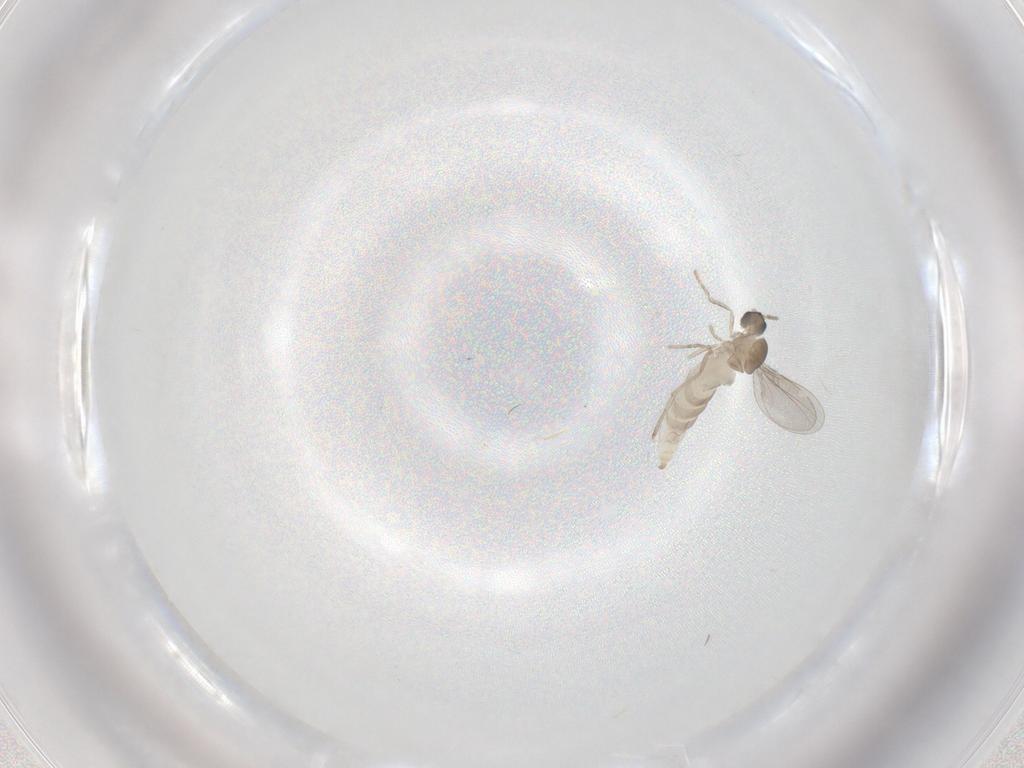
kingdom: Animalia
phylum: Arthropoda
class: Insecta
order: Diptera
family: Cecidomyiidae
